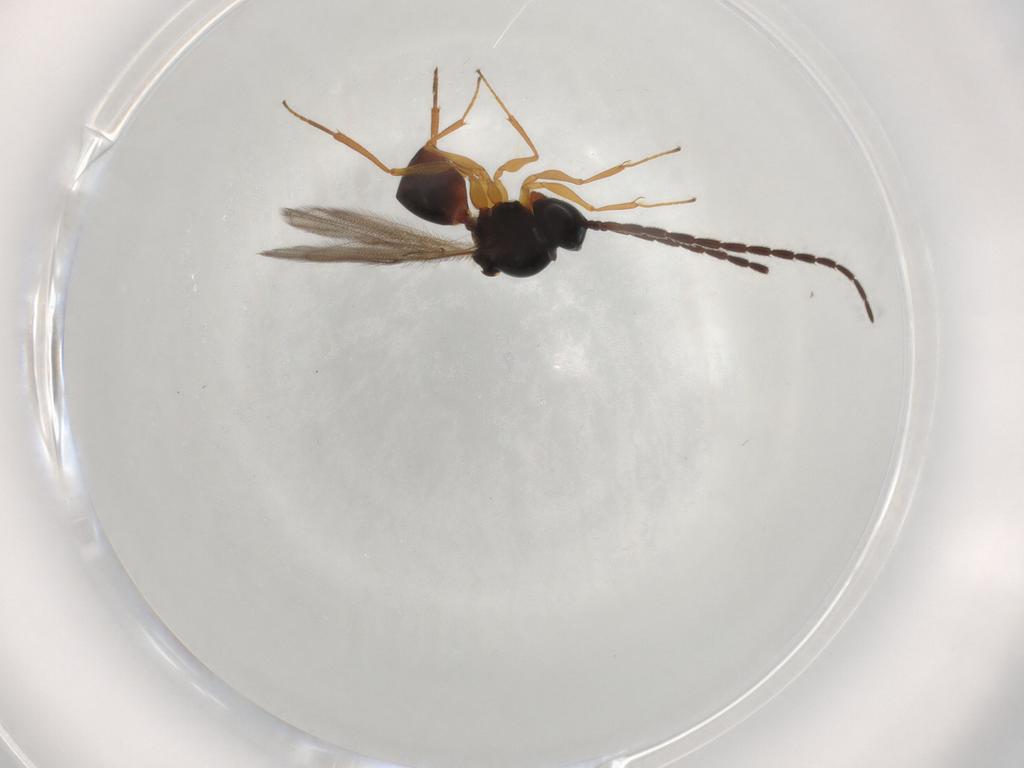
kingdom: Animalia
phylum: Arthropoda
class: Insecta
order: Hymenoptera
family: Figitidae
